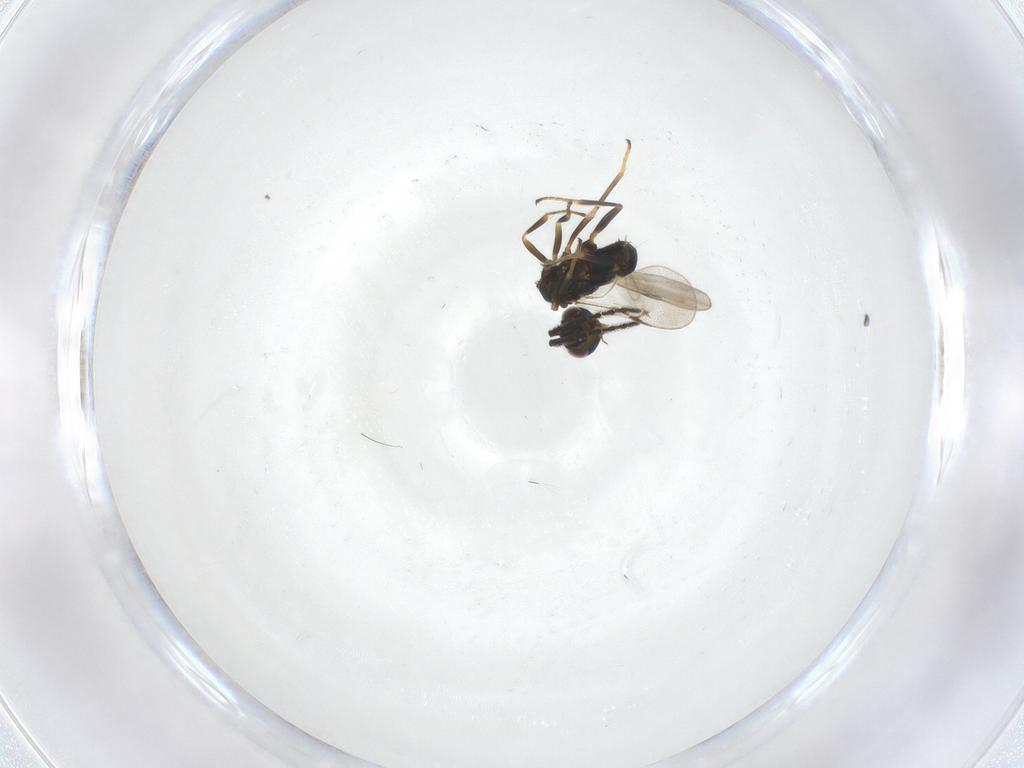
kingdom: Animalia
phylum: Arthropoda
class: Insecta
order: Hymenoptera
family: Encyrtidae
